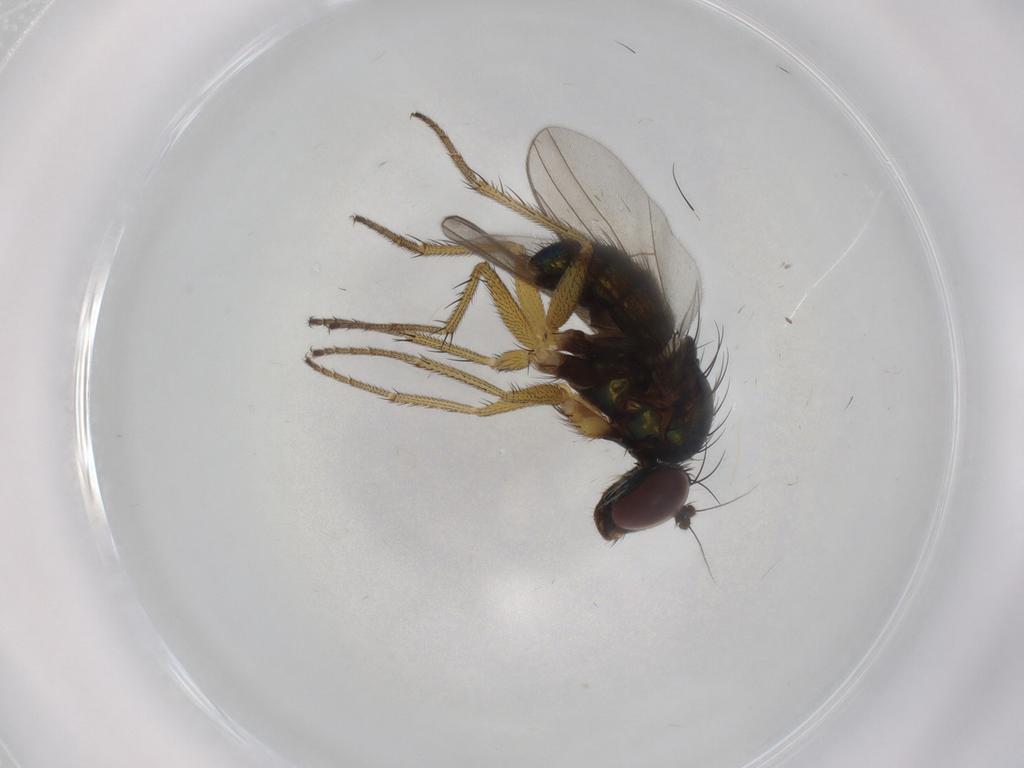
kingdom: Animalia
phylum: Arthropoda
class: Insecta
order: Diptera
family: Dolichopodidae
